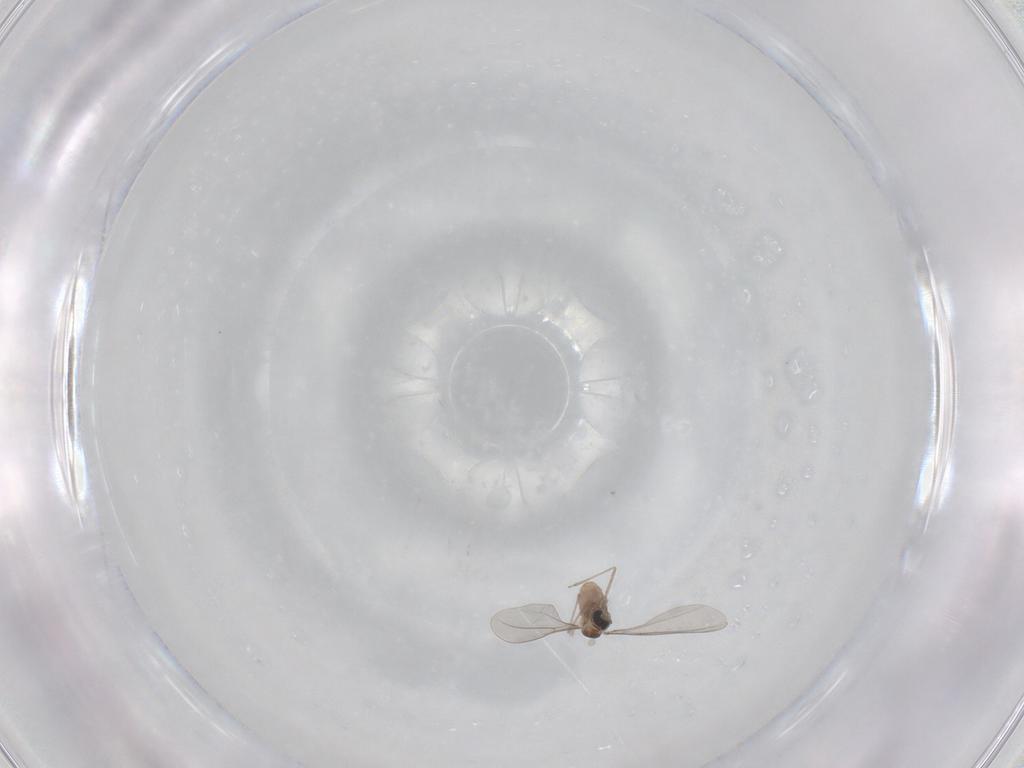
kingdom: Animalia
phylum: Arthropoda
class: Insecta
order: Diptera
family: Cecidomyiidae
